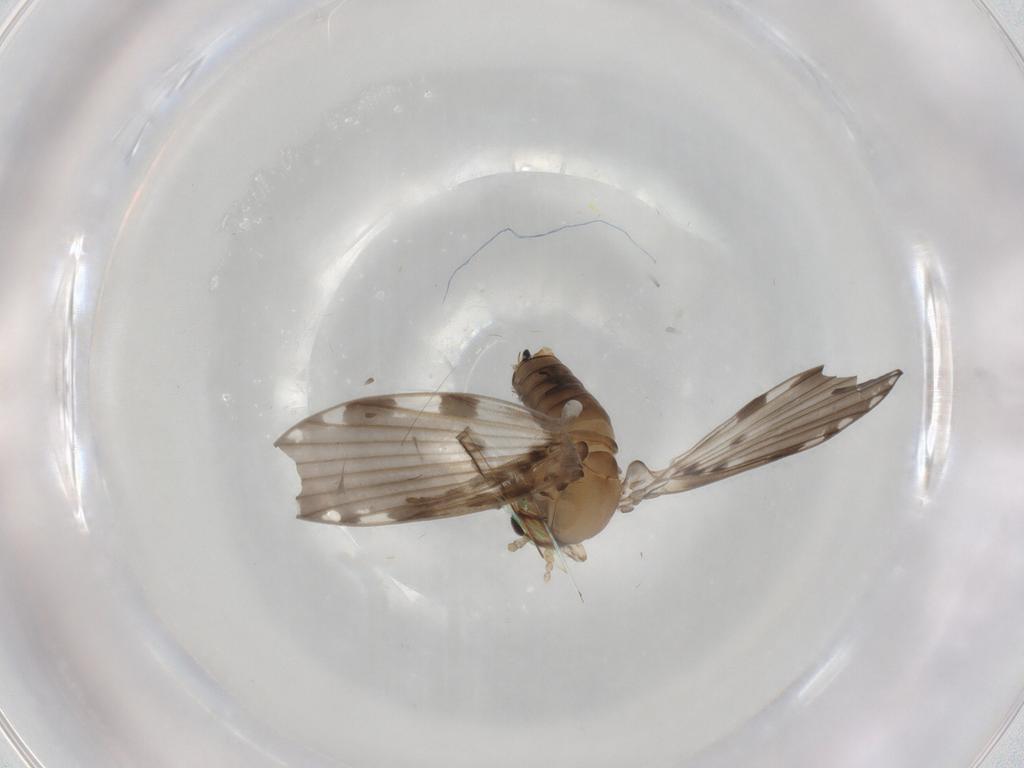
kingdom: Animalia
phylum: Arthropoda
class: Insecta
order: Diptera
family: Psychodidae
